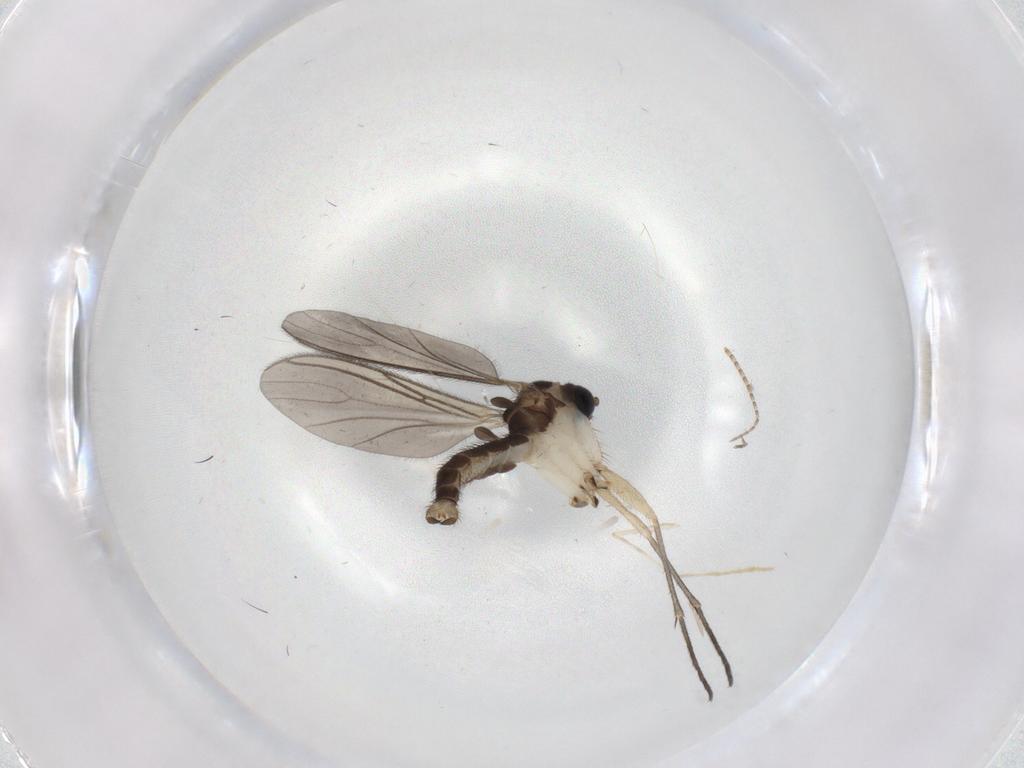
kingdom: Animalia
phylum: Arthropoda
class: Insecta
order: Diptera
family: Sciaridae
